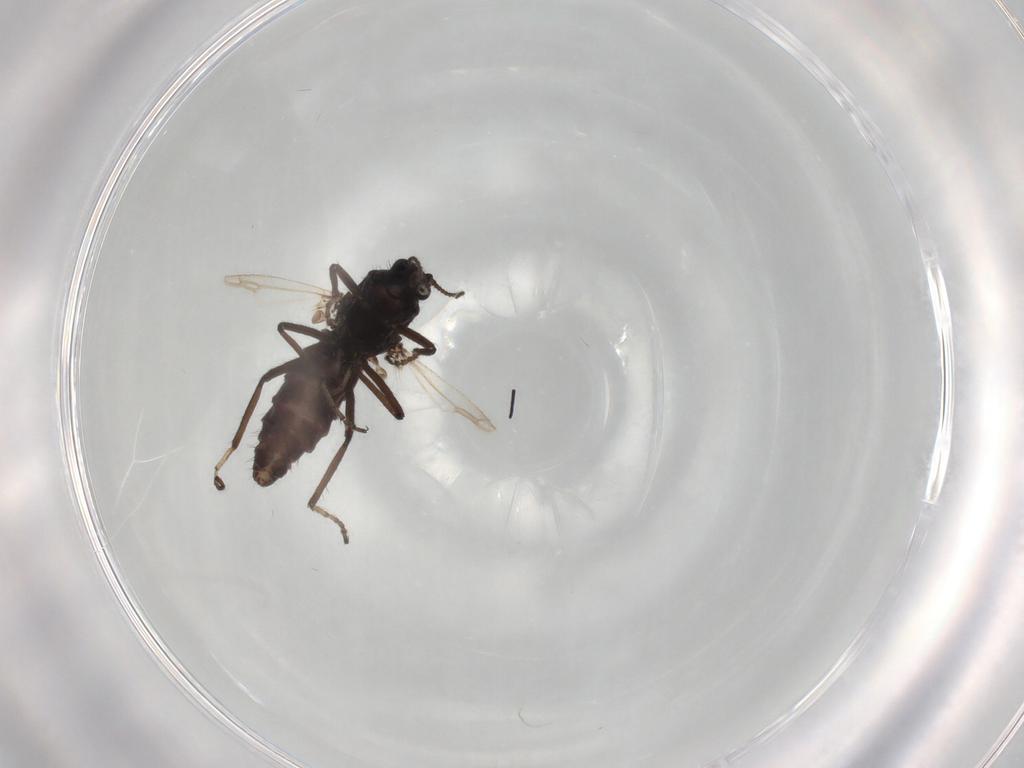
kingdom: Animalia
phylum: Arthropoda
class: Insecta
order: Diptera
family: Ceratopogonidae
